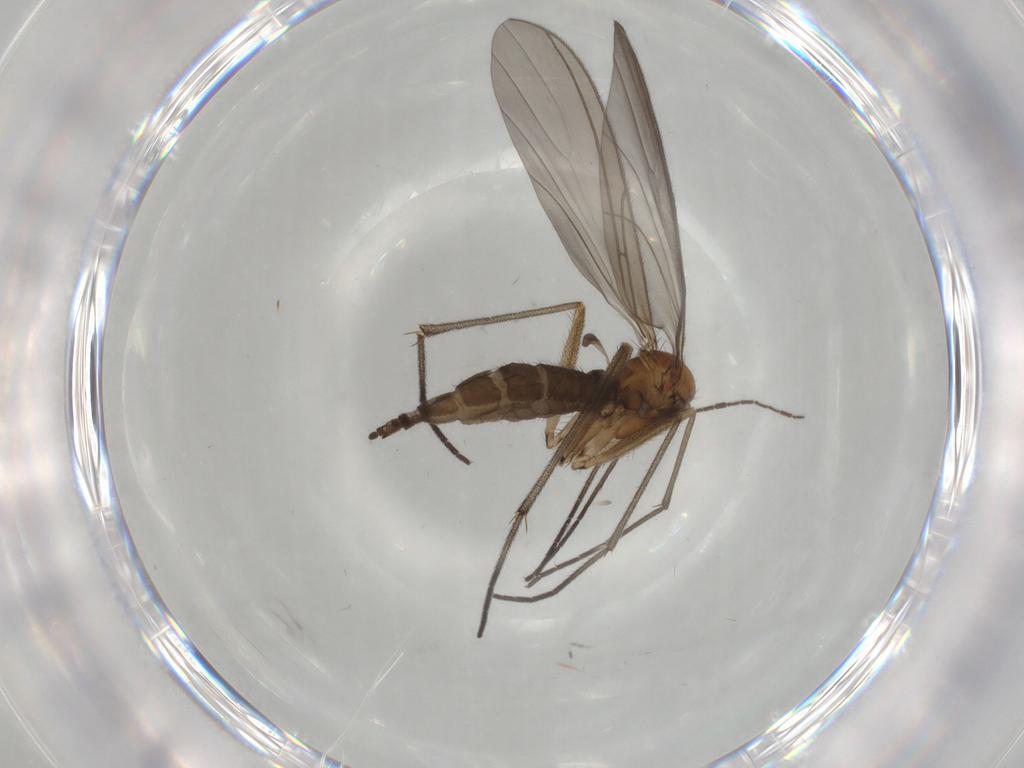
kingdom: Animalia
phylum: Arthropoda
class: Insecta
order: Diptera
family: Sciaridae
